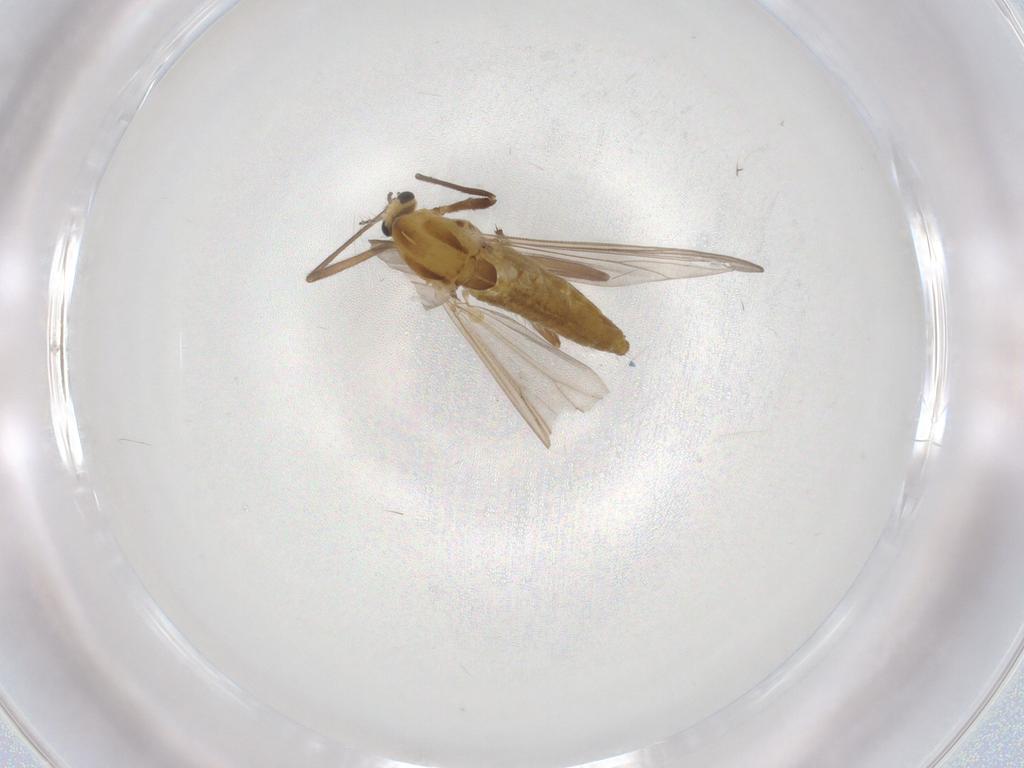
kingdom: Animalia
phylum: Arthropoda
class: Insecta
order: Diptera
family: Chironomidae
